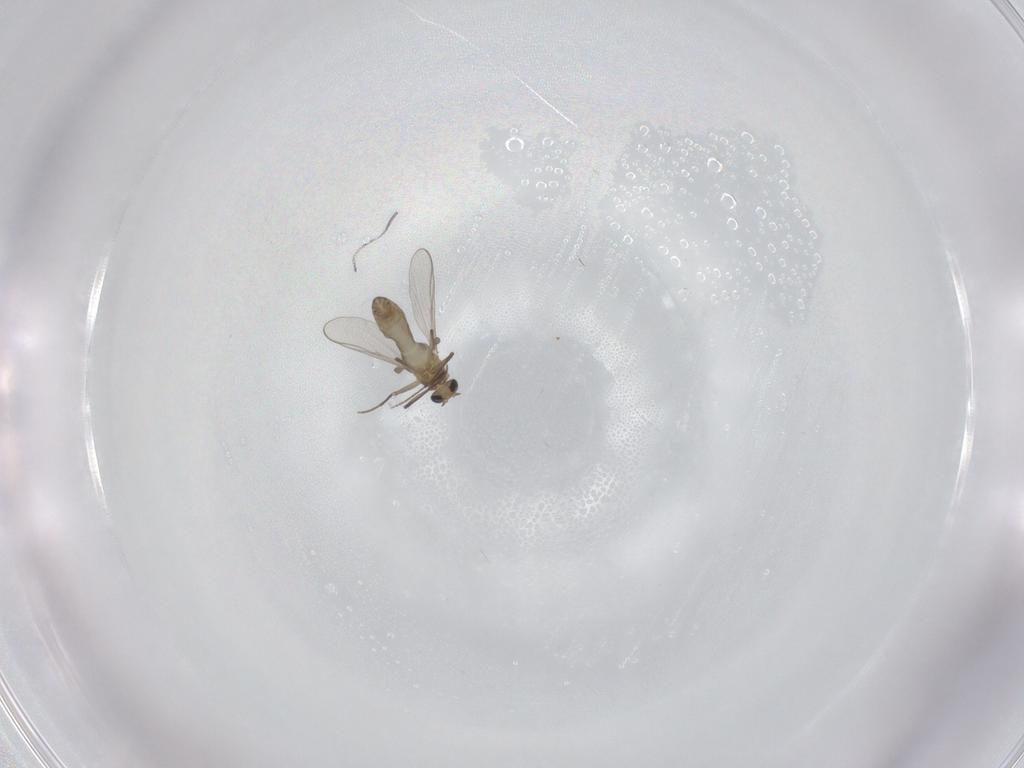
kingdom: Animalia
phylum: Arthropoda
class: Insecta
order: Diptera
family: Chironomidae
